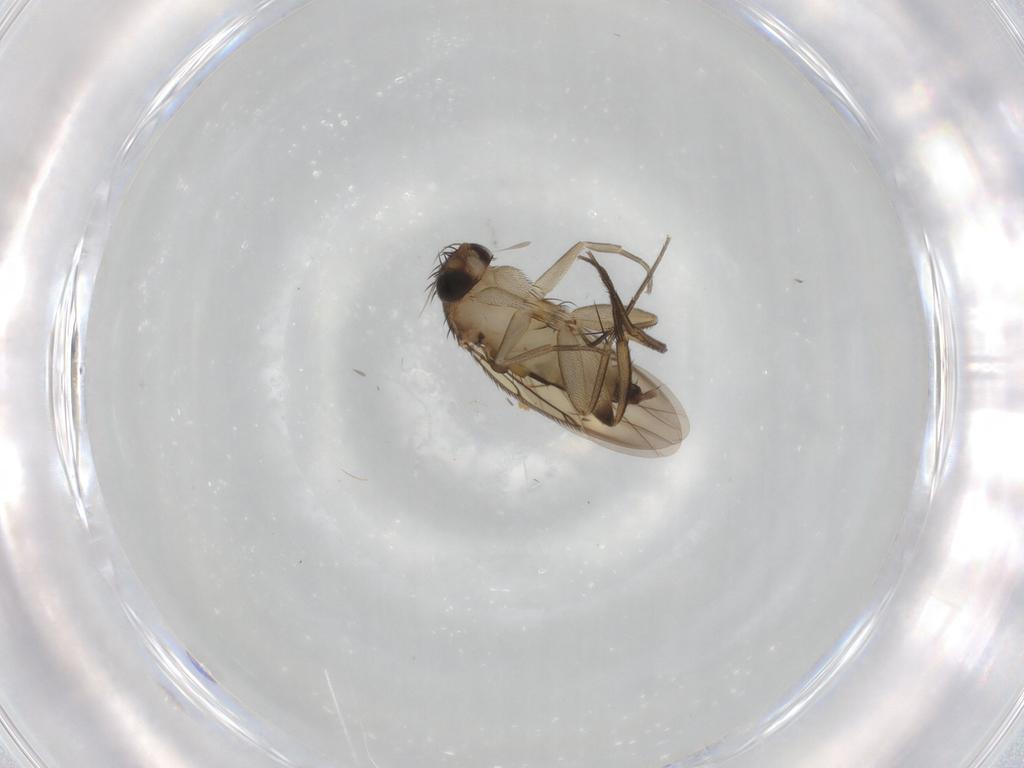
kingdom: Animalia
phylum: Arthropoda
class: Insecta
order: Diptera
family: Phoridae
